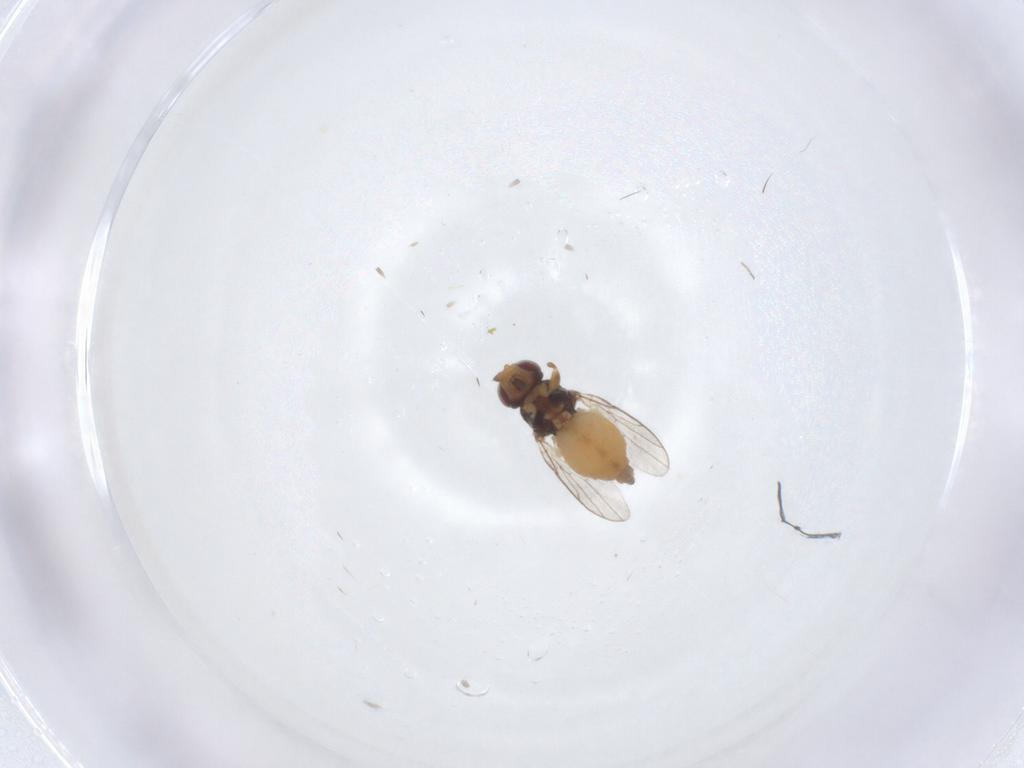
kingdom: Animalia
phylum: Arthropoda
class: Insecta
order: Diptera
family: Chloropidae
